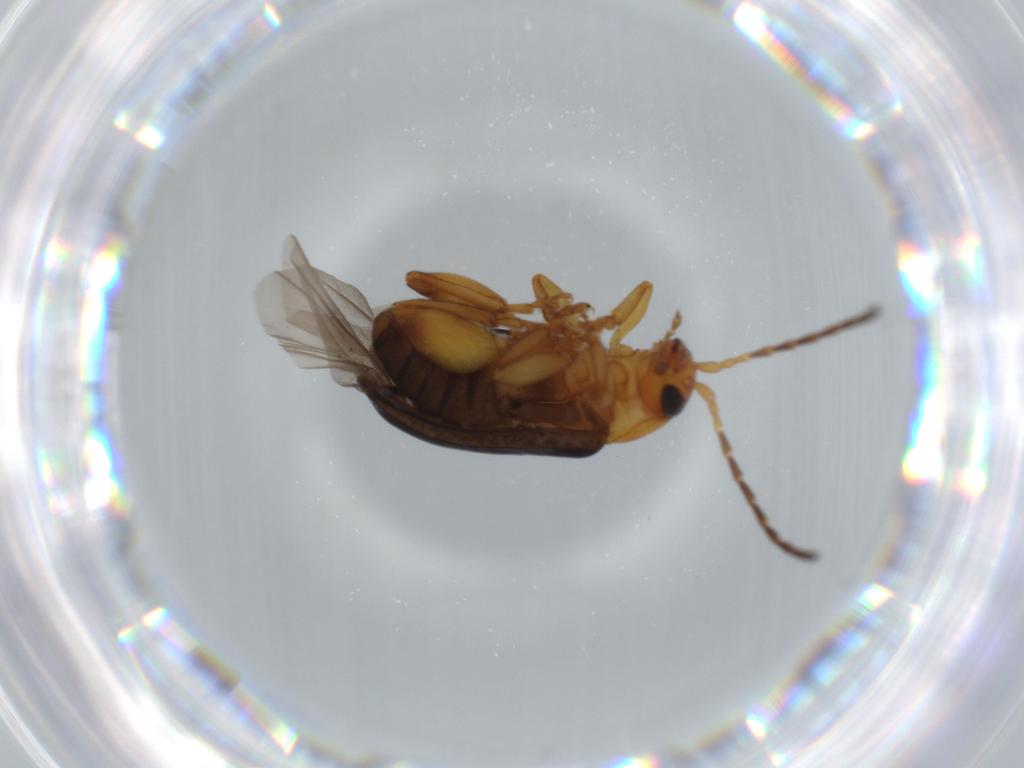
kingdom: Animalia
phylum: Arthropoda
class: Insecta
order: Coleoptera
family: Chrysomelidae
